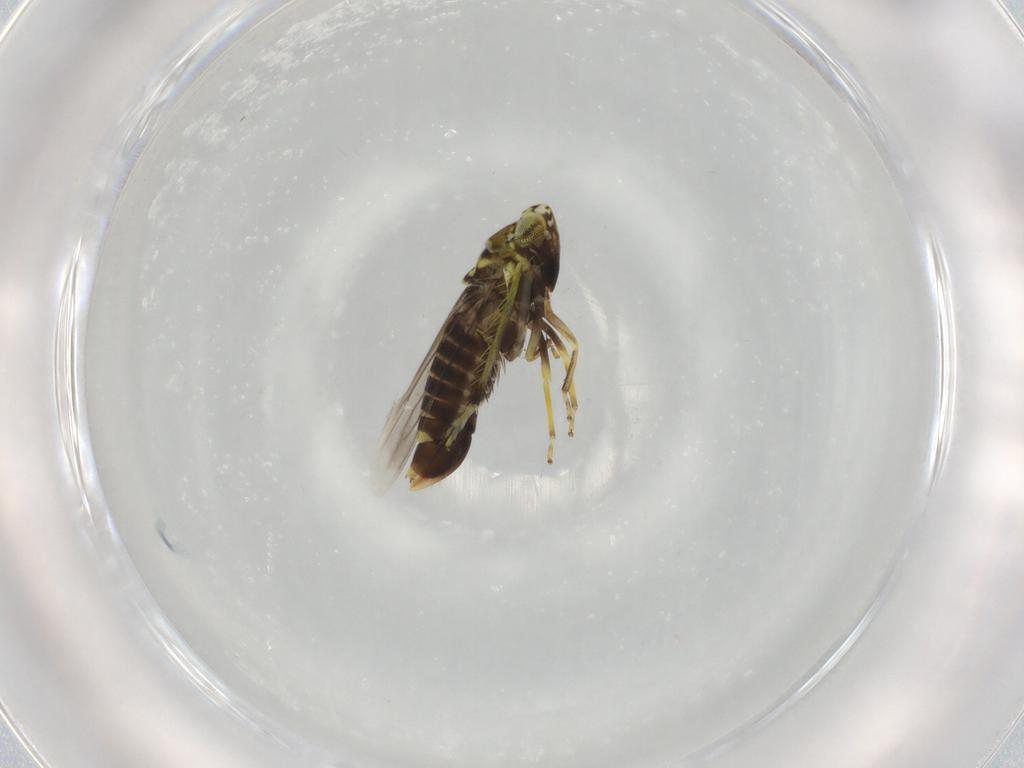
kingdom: Animalia
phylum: Arthropoda
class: Insecta
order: Hemiptera
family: Cicadellidae
